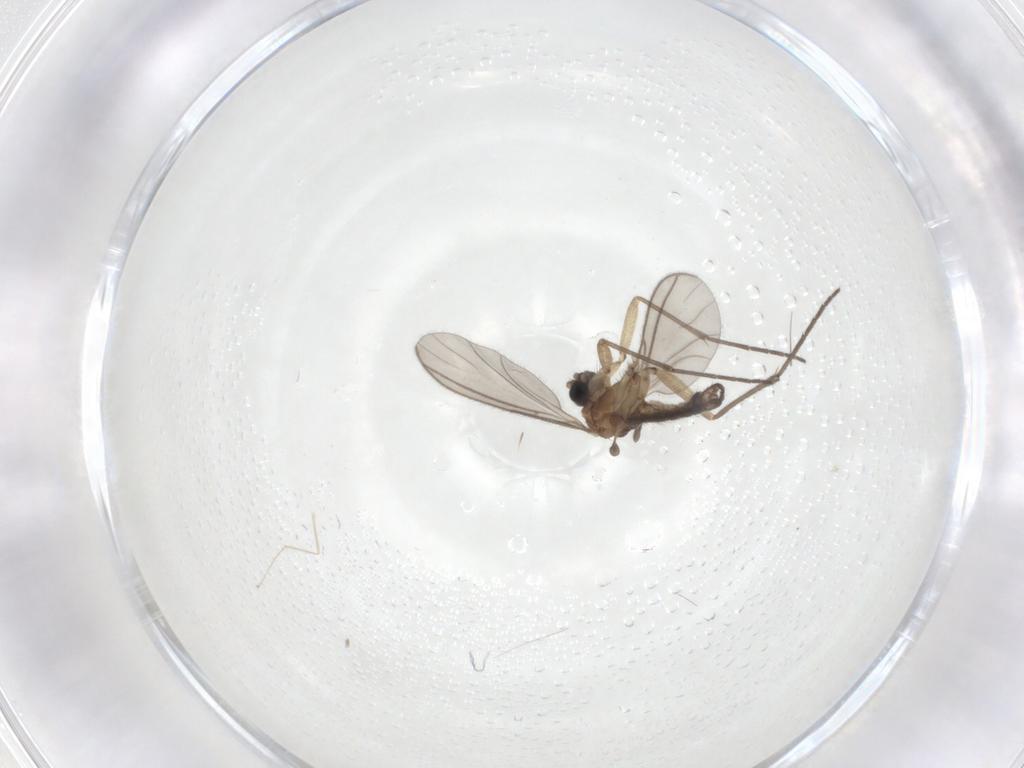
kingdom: Animalia
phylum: Arthropoda
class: Insecta
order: Diptera
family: Sciaridae
